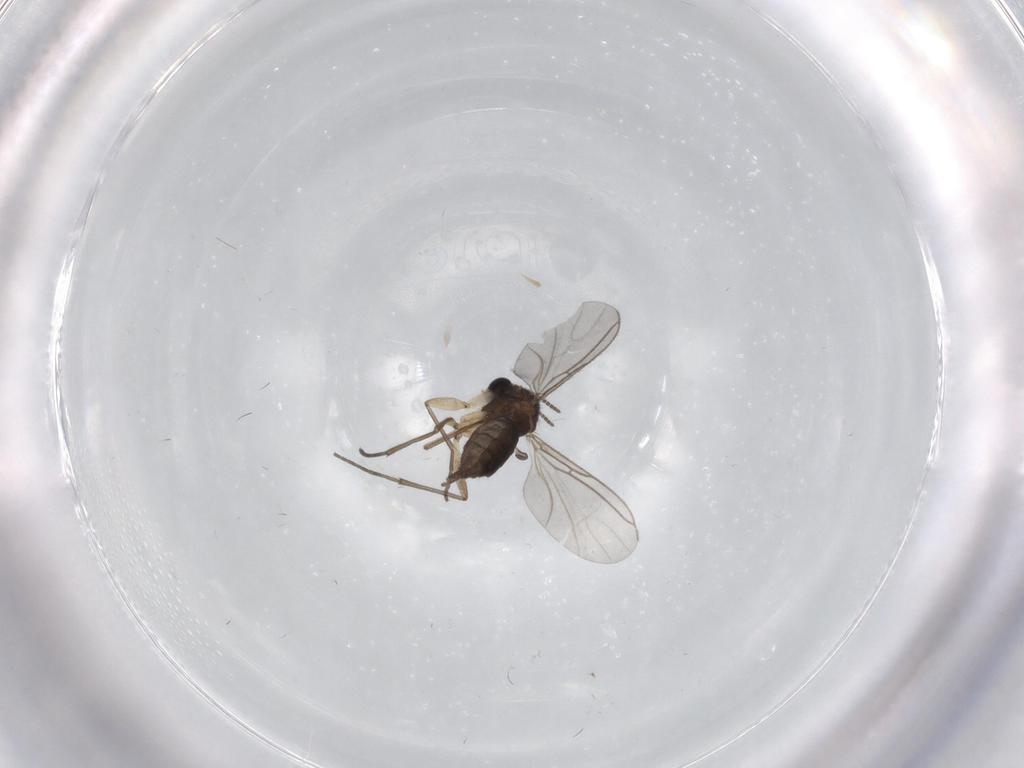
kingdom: Animalia
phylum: Arthropoda
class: Insecta
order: Diptera
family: Sciaridae
